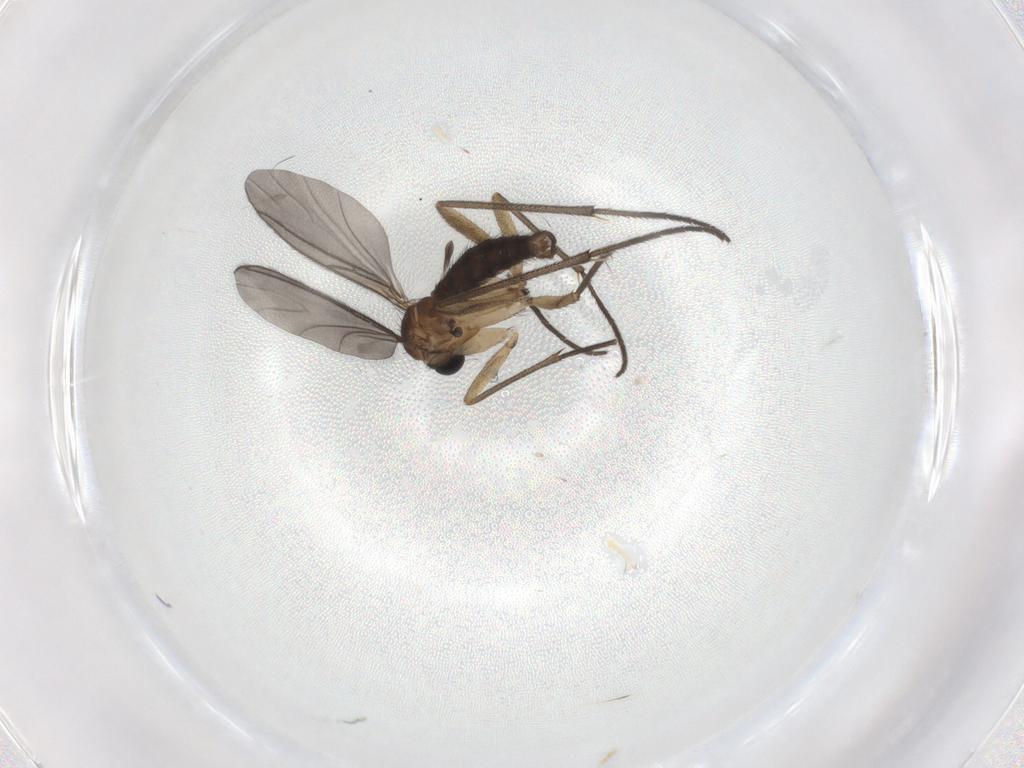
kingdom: Animalia
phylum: Arthropoda
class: Insecta
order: Diptera
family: Sciaridae
